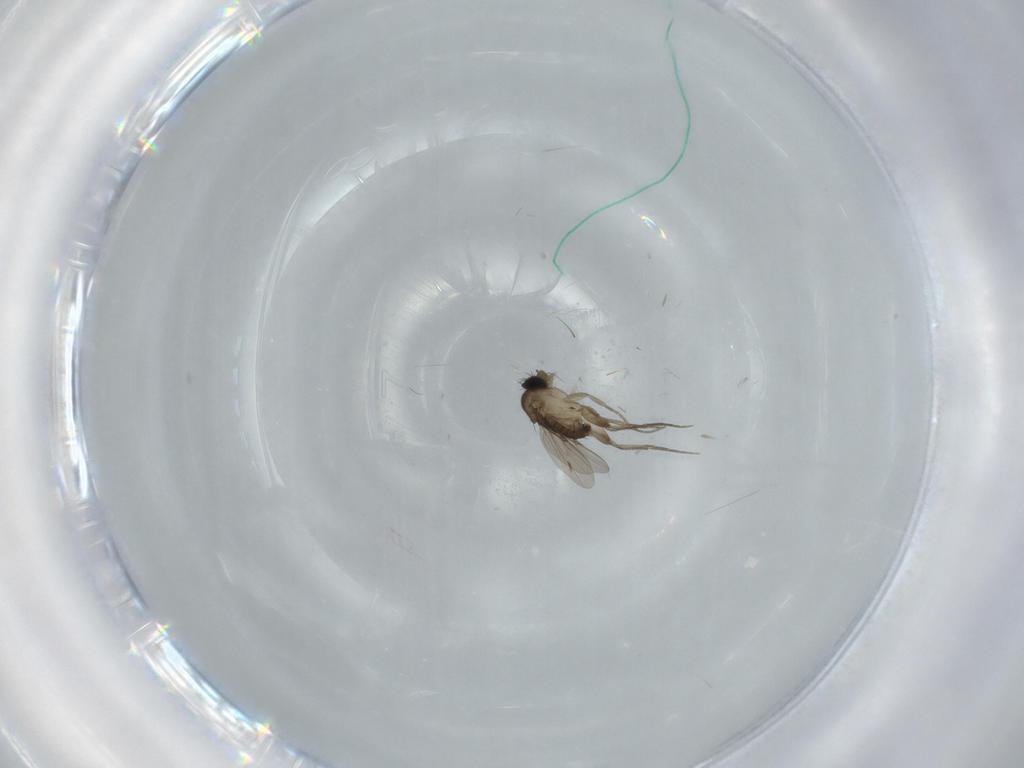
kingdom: Animalia
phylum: Arthropoda
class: Insecta
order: Diptera
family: Phoridae
